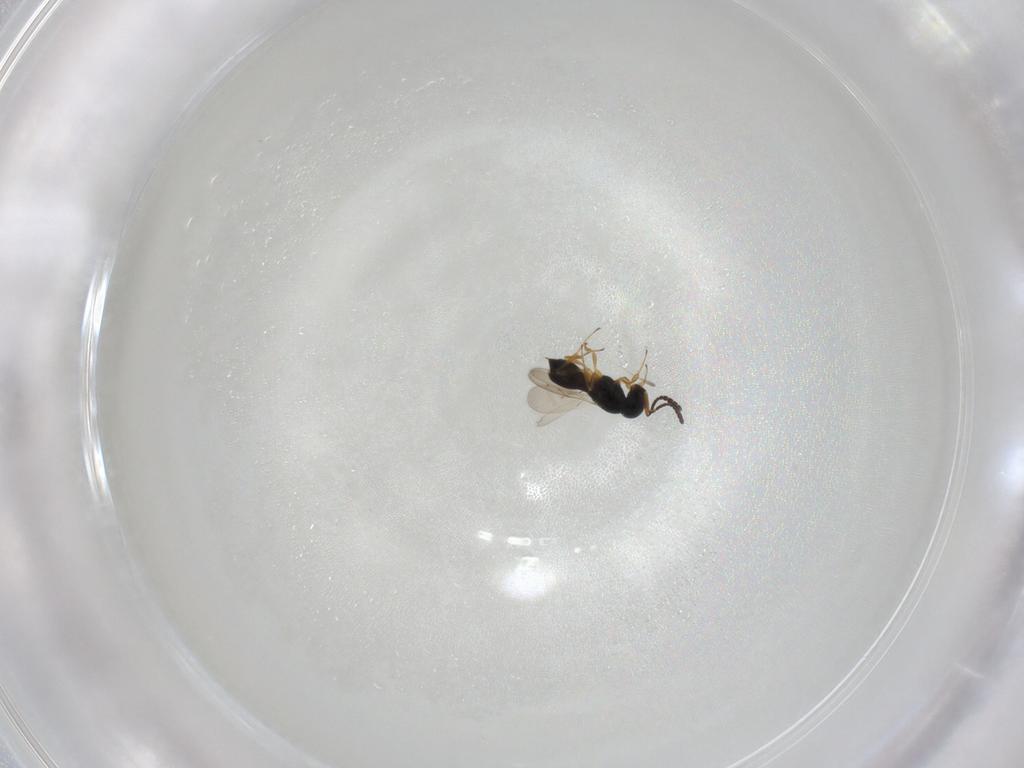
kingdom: Animalia
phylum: Arthropoda
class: Insecta
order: Hymenoptera
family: Scelionidae
